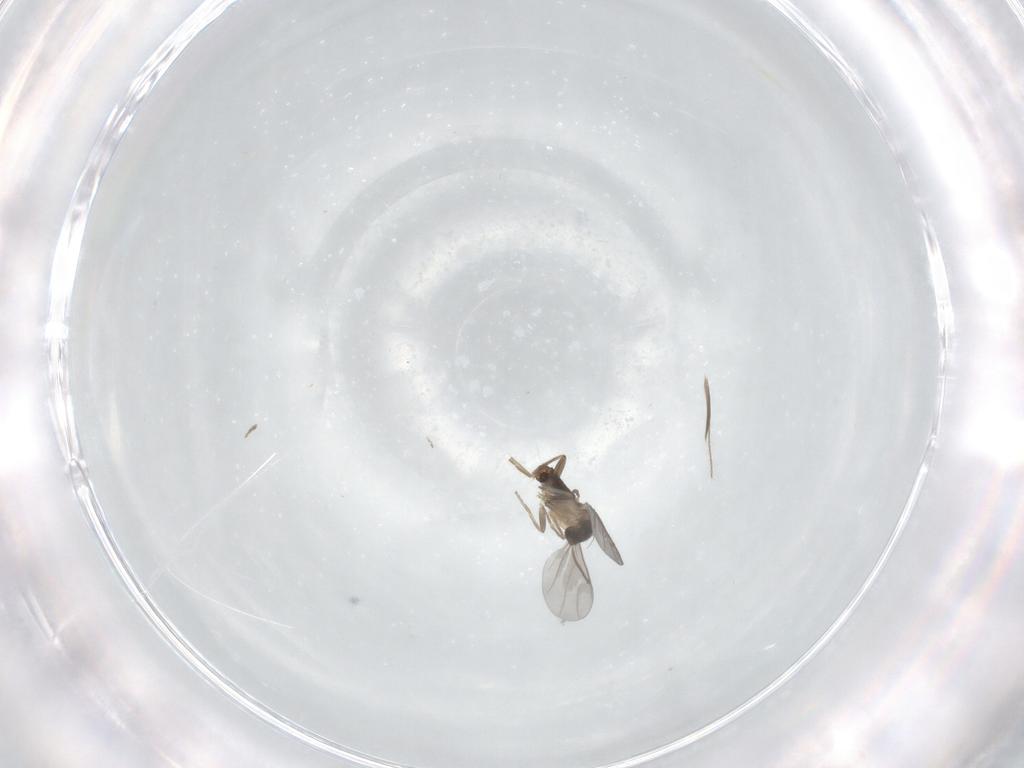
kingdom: Animalia
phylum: Arthropoda
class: Insecta
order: Diptera
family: Ceratopogonidae
